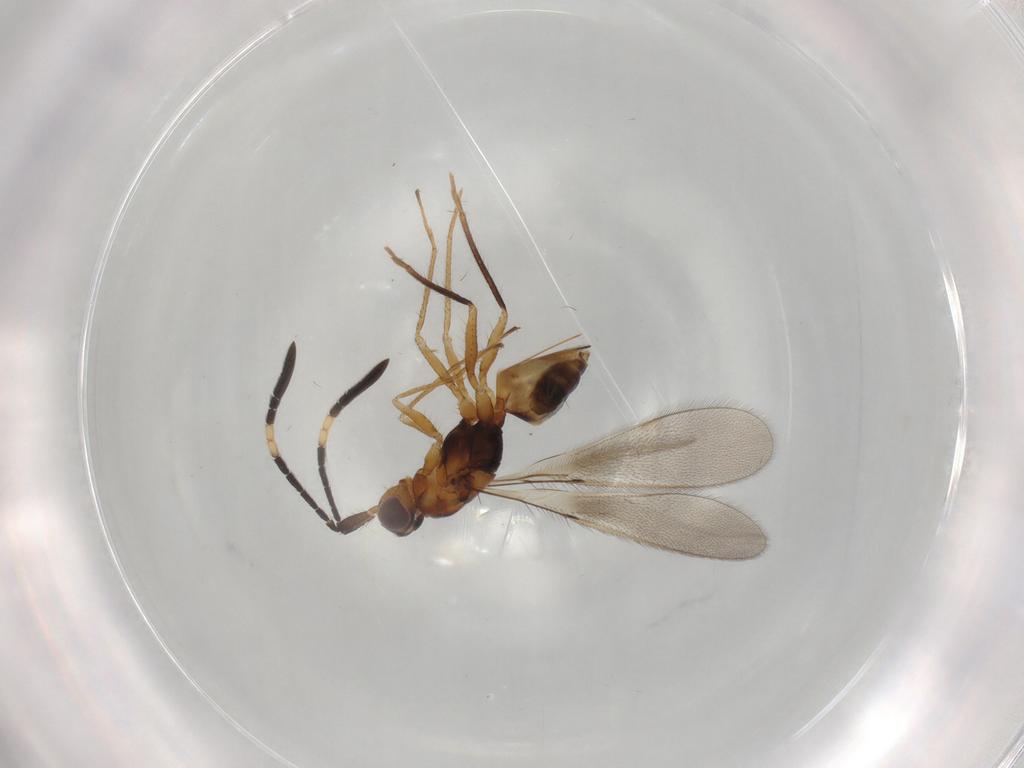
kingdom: Animalia
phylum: Arthropoda
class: Insecta
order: Hymenoptera
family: Mymaridae
